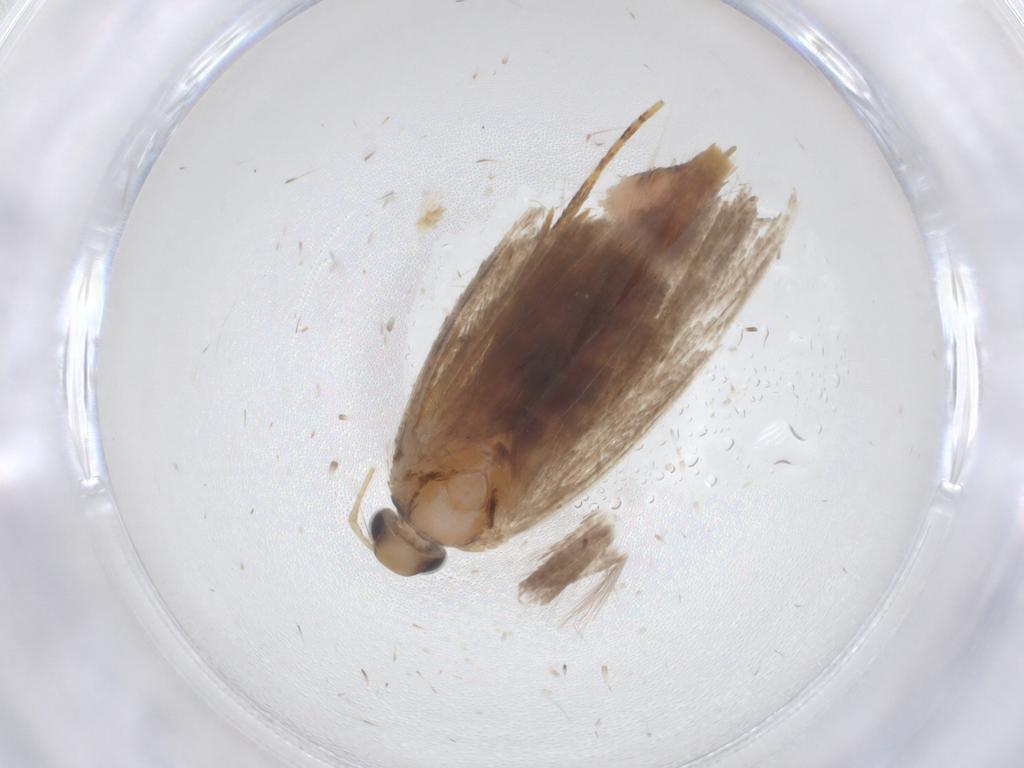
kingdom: Animalia
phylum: Arthropoda
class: Insecta
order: Lepidoptera
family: Gelechiidae
